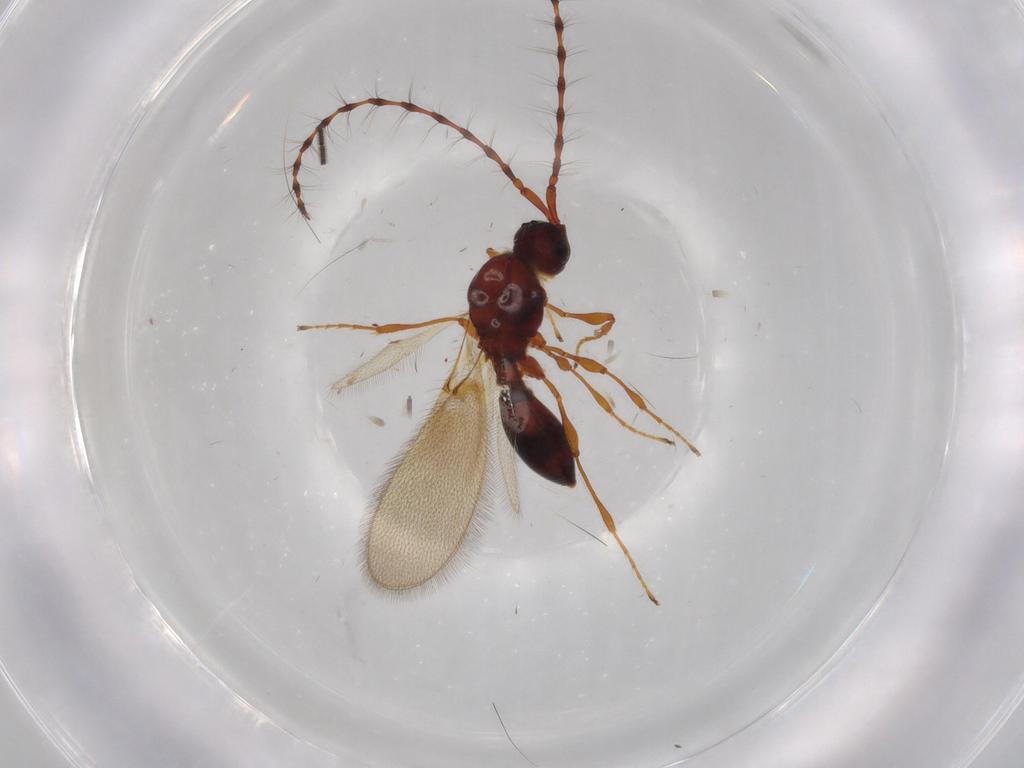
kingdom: Animalia
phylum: Arthropoda
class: Insecta
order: Hymenoptera
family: Diapriidae
